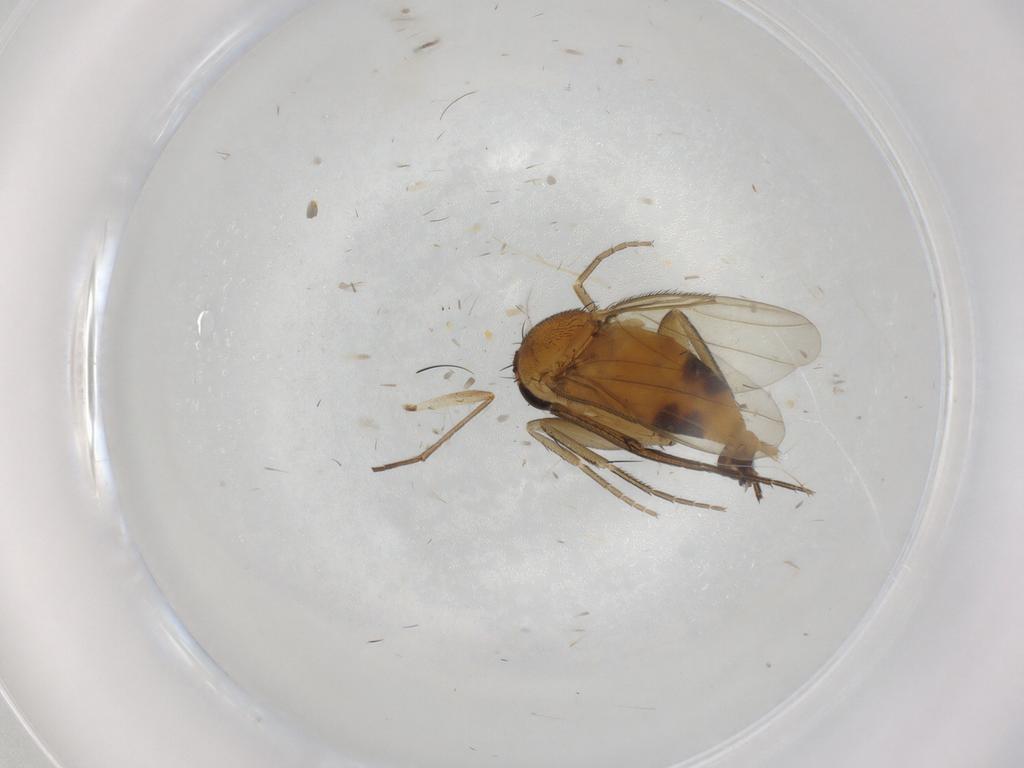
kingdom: Animalia
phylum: Arthropoda
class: Insecta
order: Diptera
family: Phoridae
